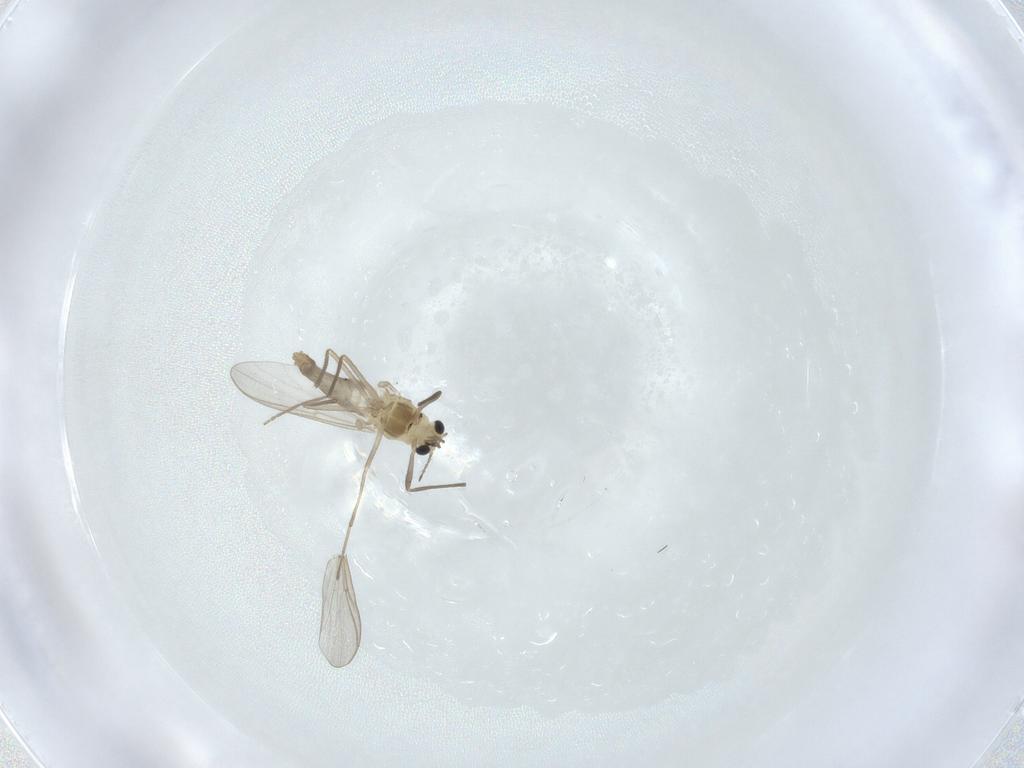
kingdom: Animalia
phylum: Arthropoda
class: Insecta
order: Diptera
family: Chironomidae
